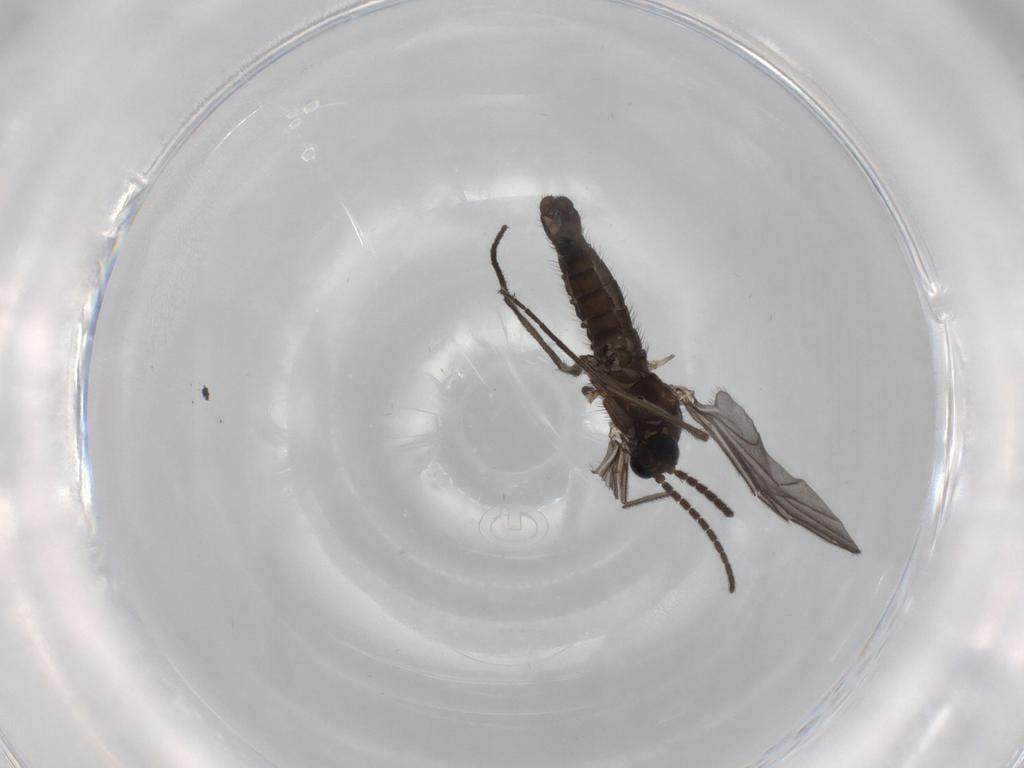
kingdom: Animalia
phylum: Arthropoda
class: Insecta
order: Diptera
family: Sciaridae
